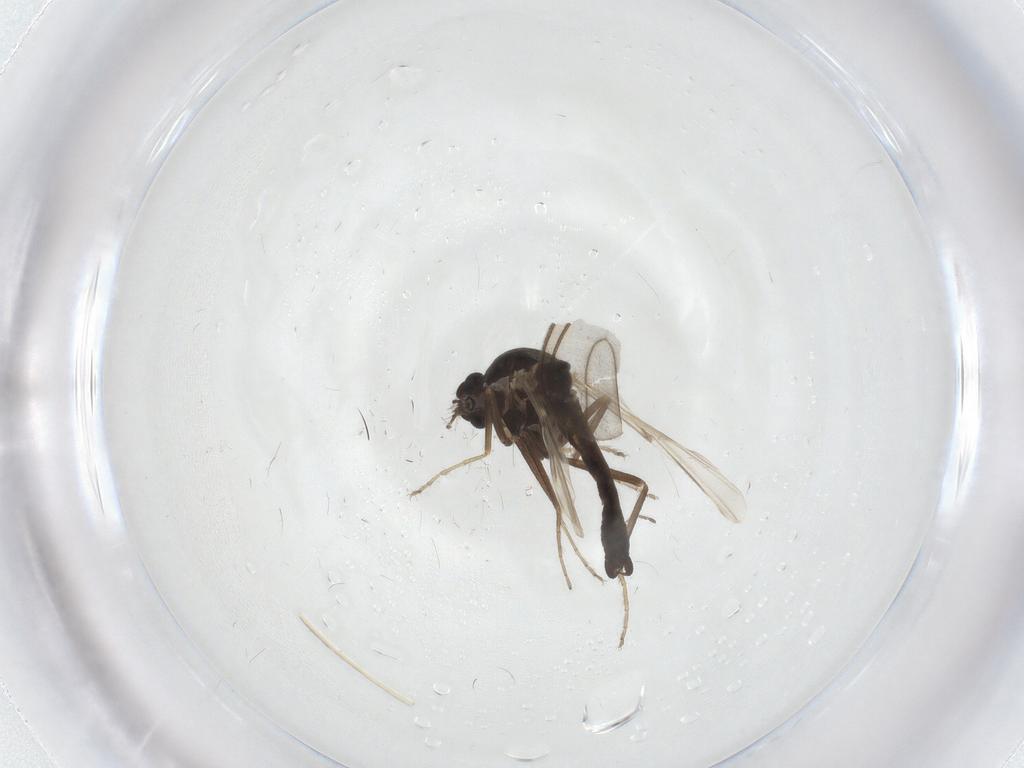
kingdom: Animalia
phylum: Arthropoda
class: Insecta
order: Diptera
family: Ceratopogonidae
